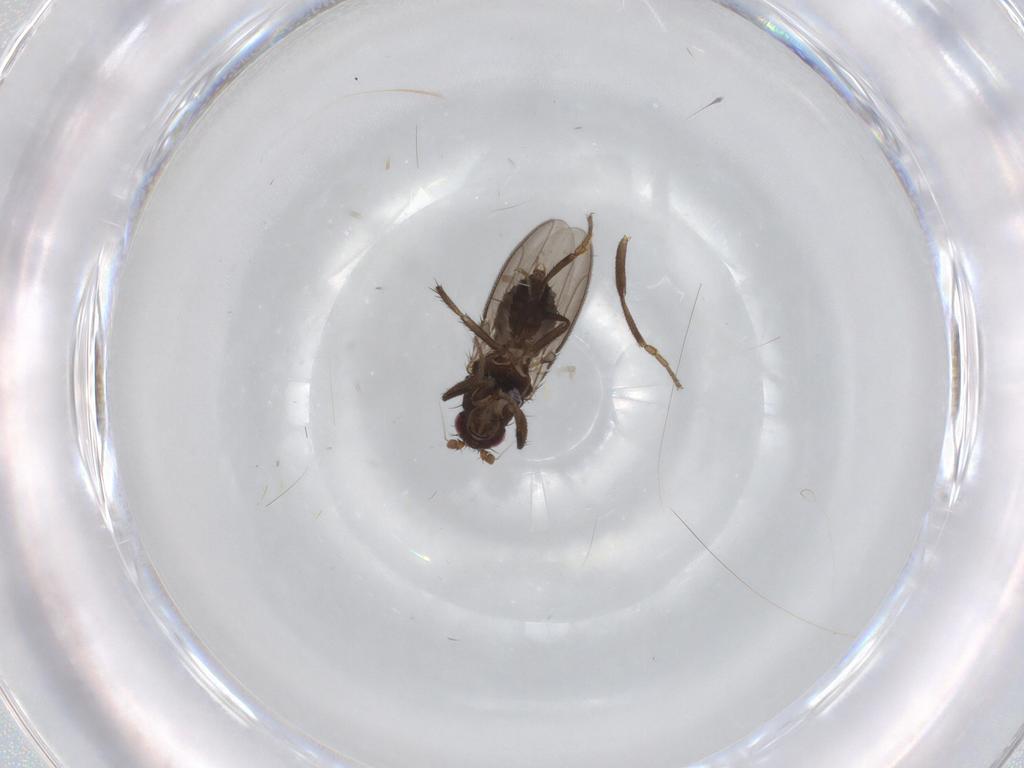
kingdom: Animalia
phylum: Arthropoda
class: Insecta
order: Diptera
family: Sphaeroceridae
